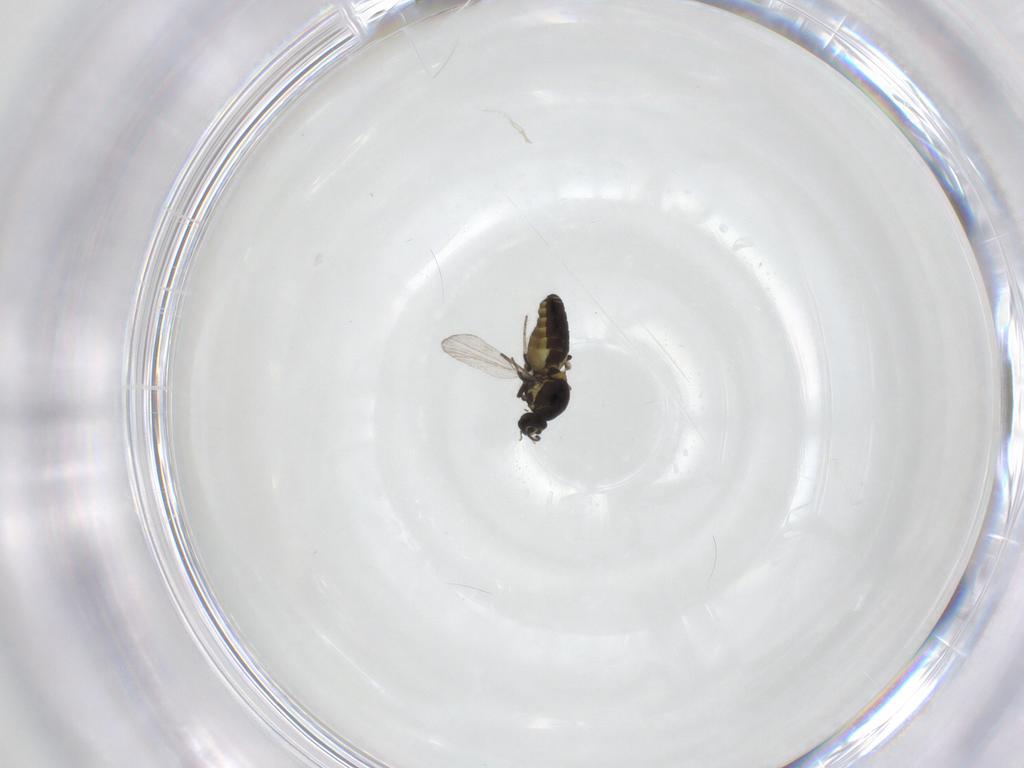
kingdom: Animalia
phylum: Arthropoda
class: Insecta
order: Diptera
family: Ceratopogonidae
